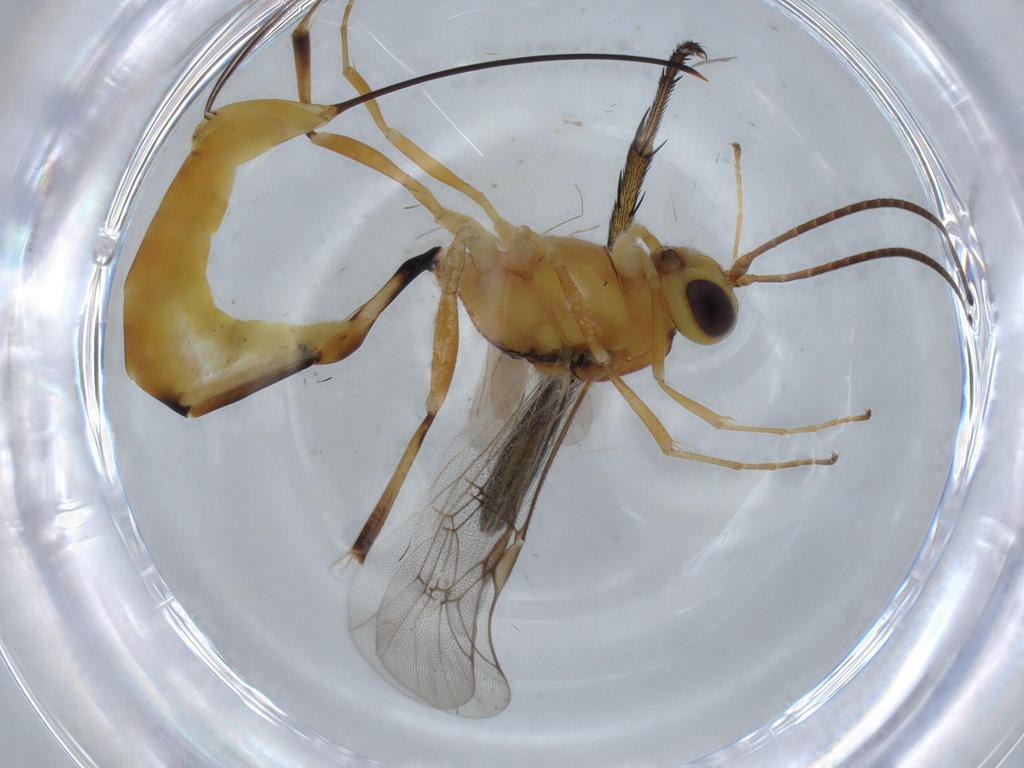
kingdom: Animalia
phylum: Arthropoda
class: Insecta
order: Hymenoptera
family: Ichneumonidae
